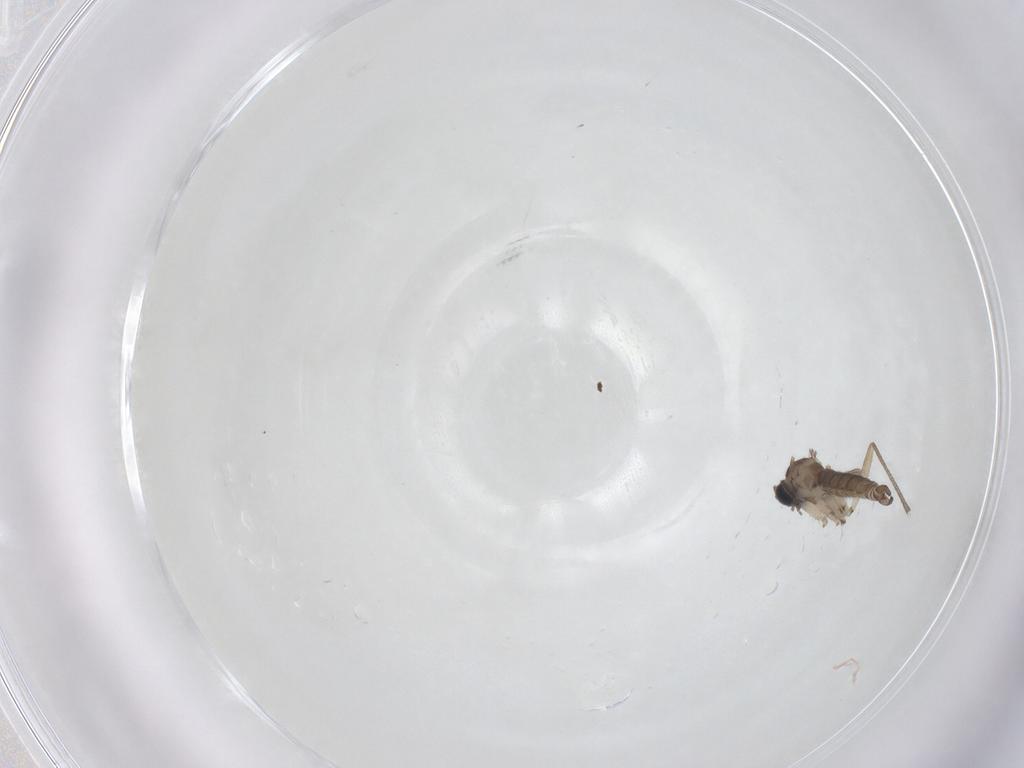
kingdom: Animalia
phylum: Arthropoda
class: Insecta
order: Diptera
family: Sciaridae
